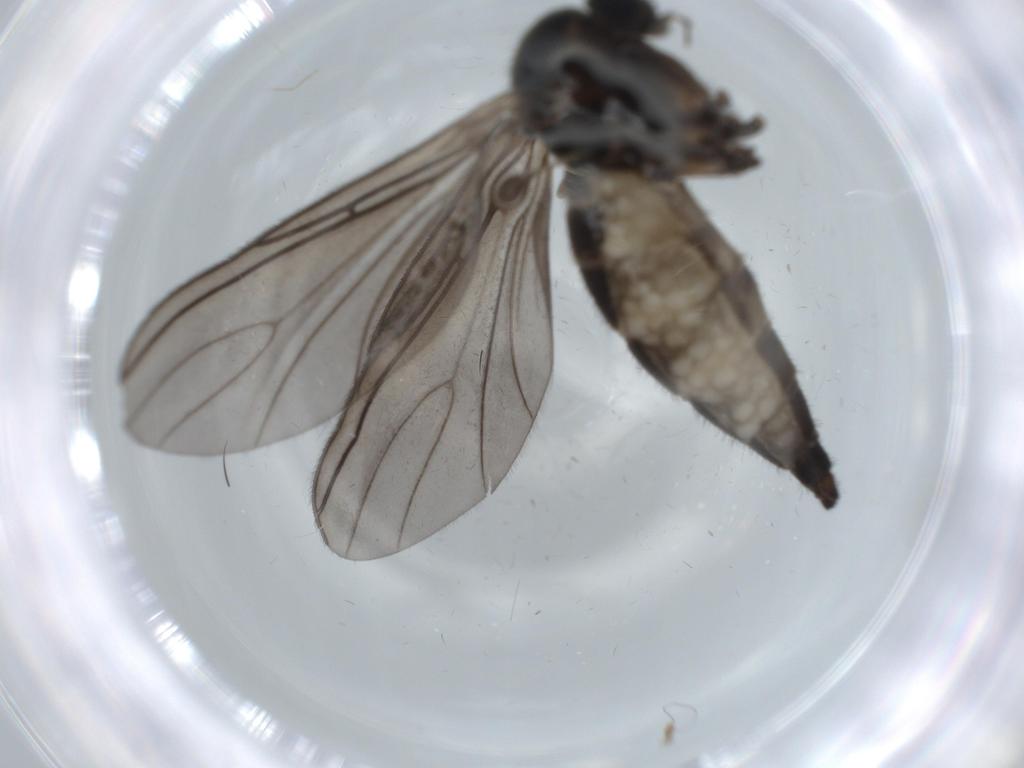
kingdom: Animalia
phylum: Arthropoda
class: Insecta
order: Diptera
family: Sciaridae
